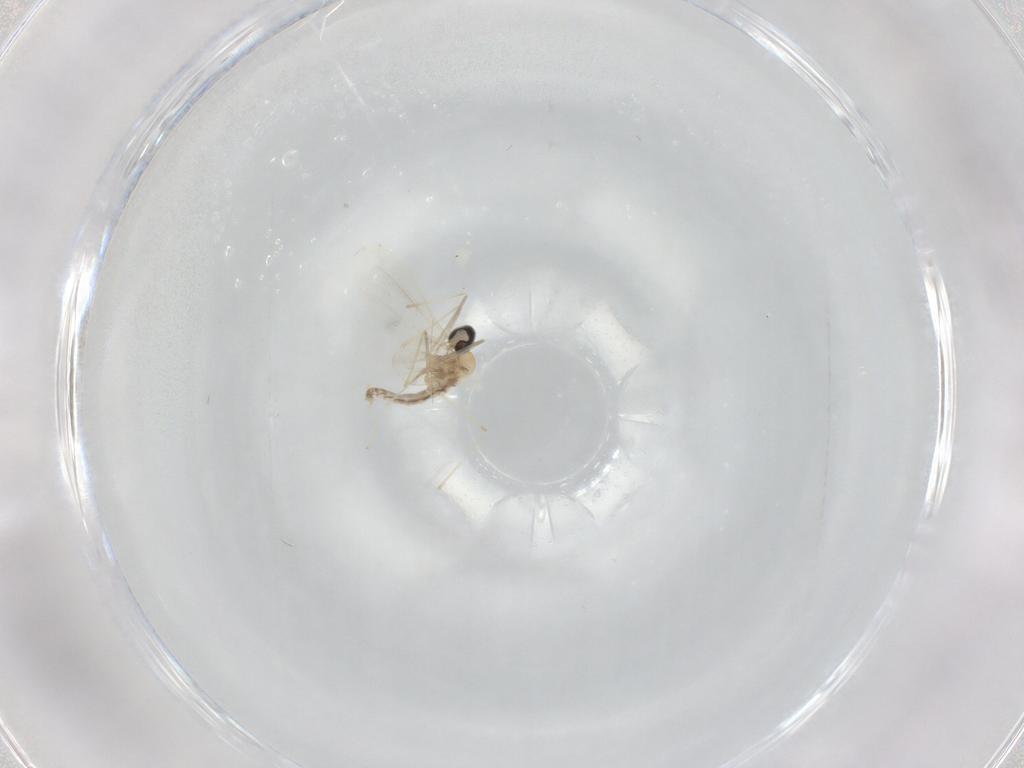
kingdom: Animalia
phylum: Arthropoda
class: Insecta
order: Diptera
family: Cecidomyiidae
